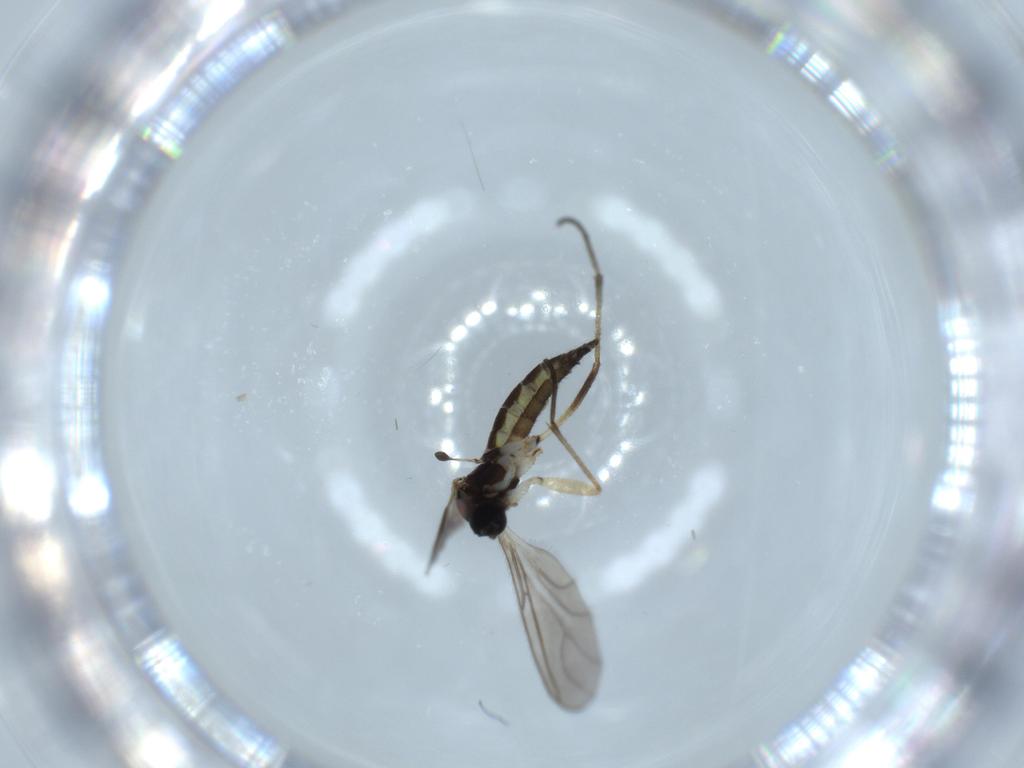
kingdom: Animalia
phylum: Arthropoda
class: Insecta
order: Diptera
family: Sciaridae
